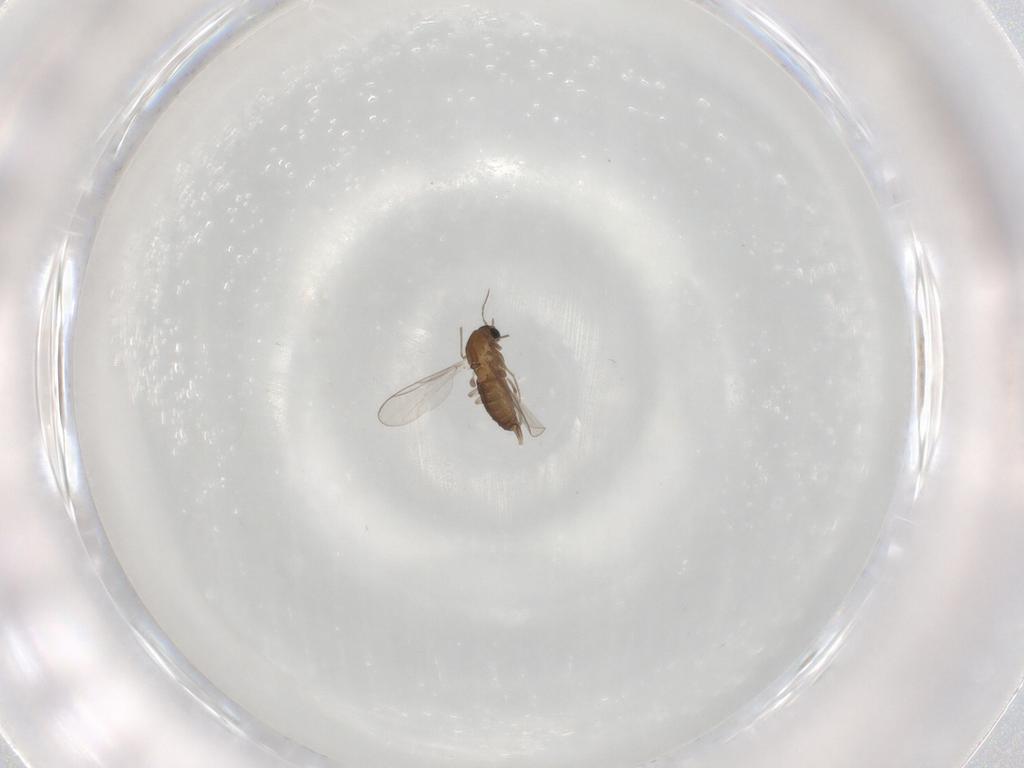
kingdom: Animalia
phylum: Arthropoda
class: Insecta
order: Diptera
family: Chironomidae
